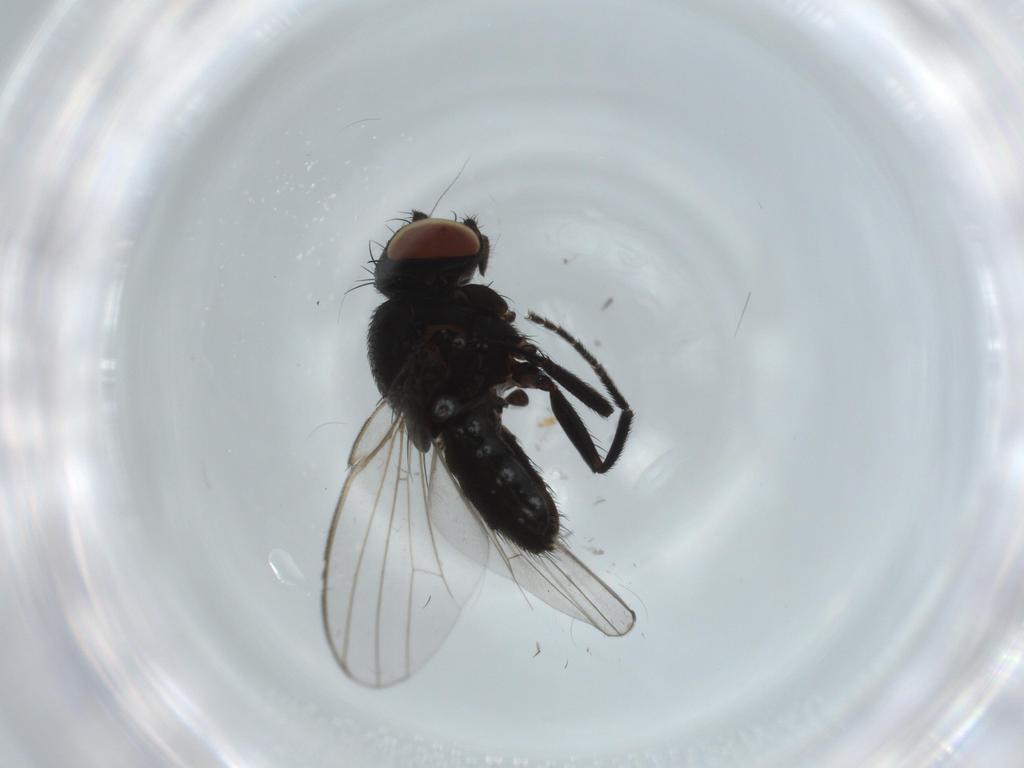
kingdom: Animalia
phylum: Arthropoda
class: Insecta
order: Diptera
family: Milichiidae
